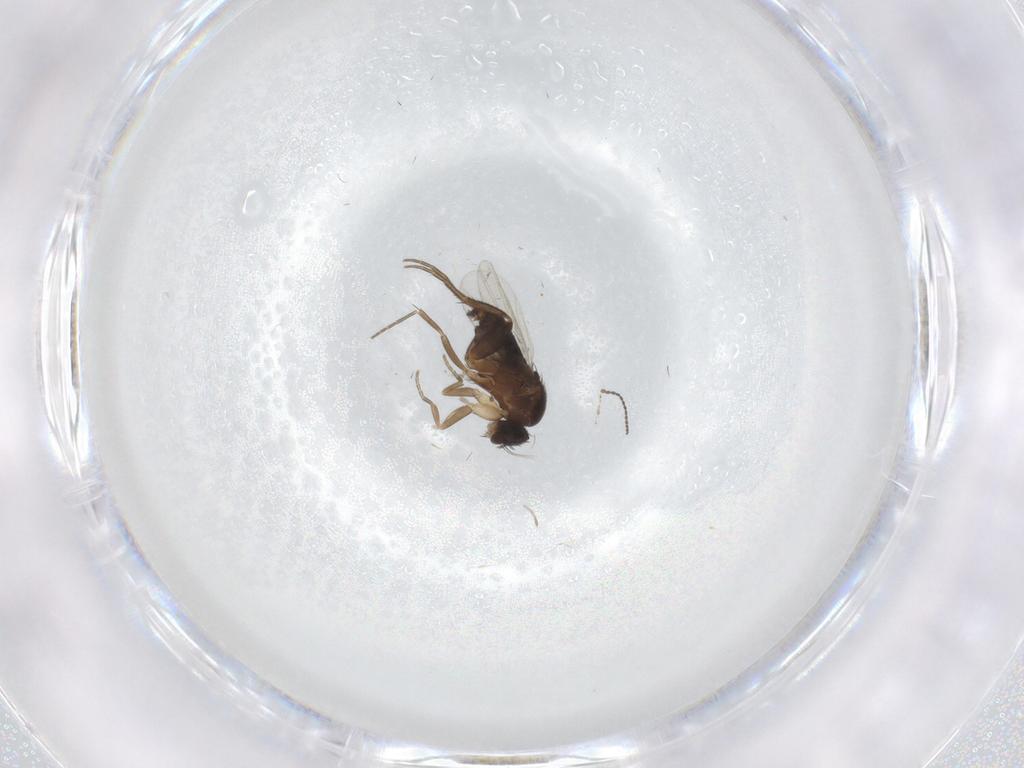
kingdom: Animalia
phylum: Arthropoda
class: Insecta
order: Diptera
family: Phoridae
